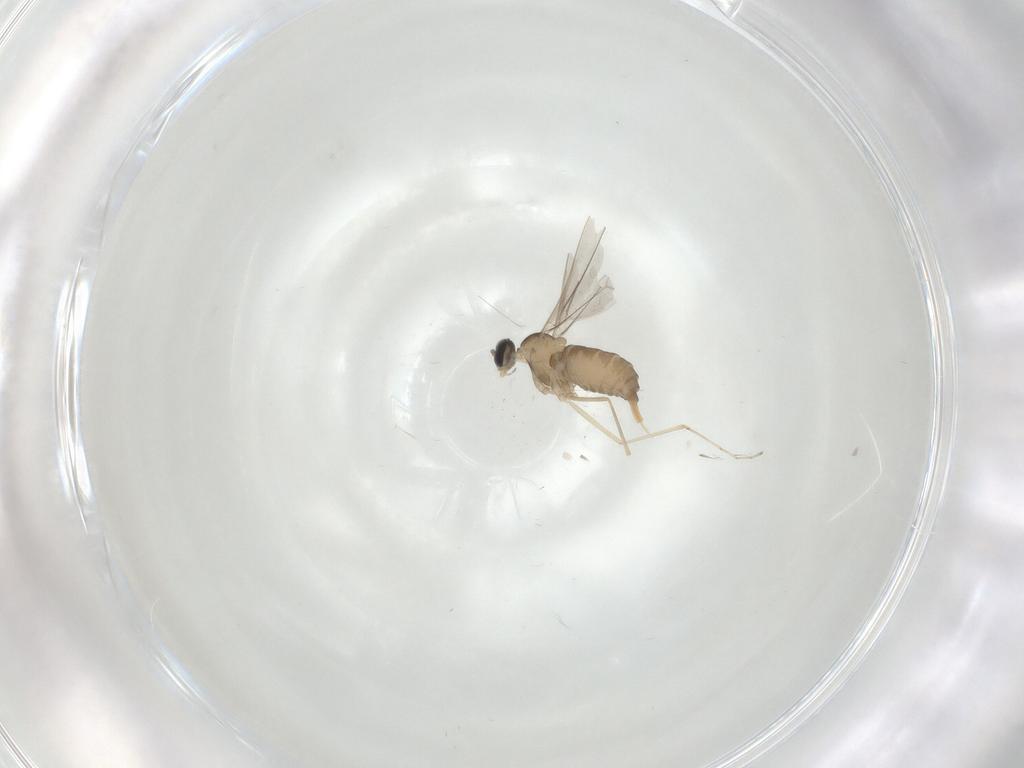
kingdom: Animalia
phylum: Arthropoda
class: Insecta
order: Diptera
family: Cecidomyiidae
